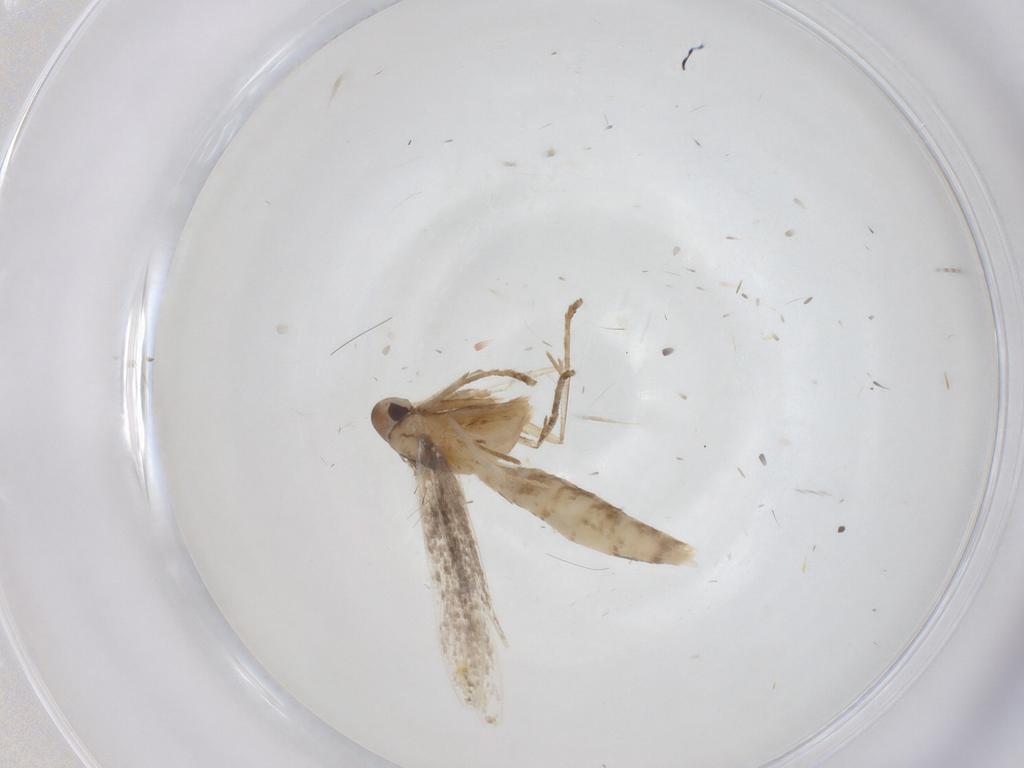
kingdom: Animalia
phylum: Arthropoda
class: Insecta
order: Lepidoptera
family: Cosmopterigidae
